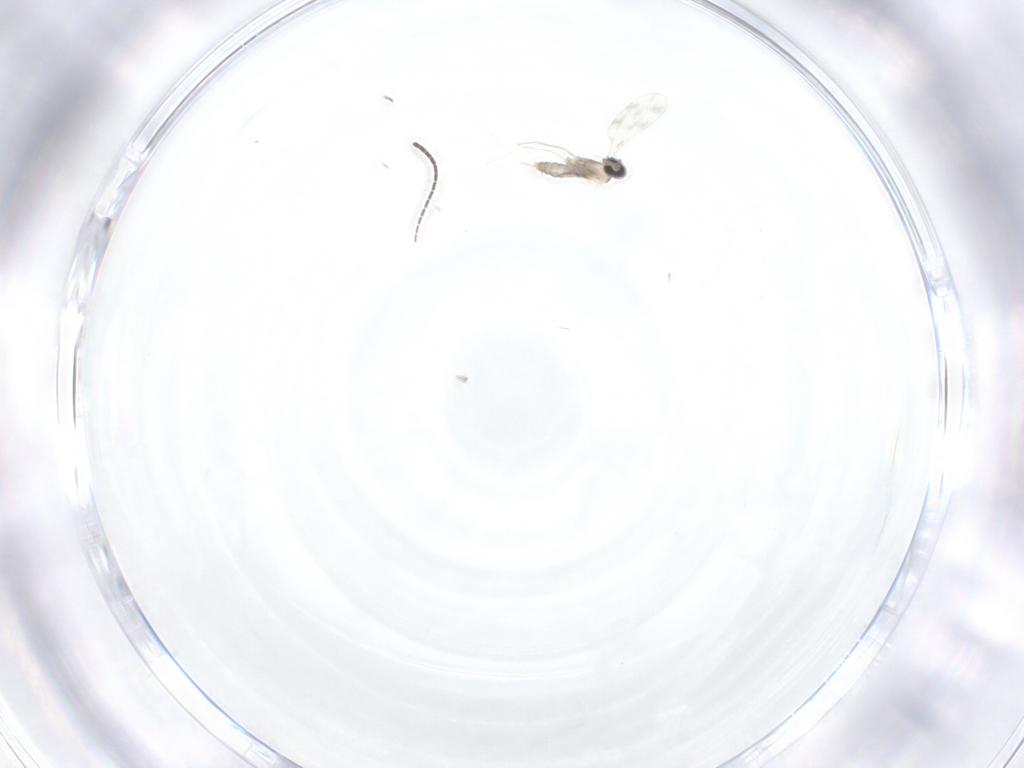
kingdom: Animalia
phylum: Arthropoda
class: Insecta
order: Diptera
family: Sciaridae
